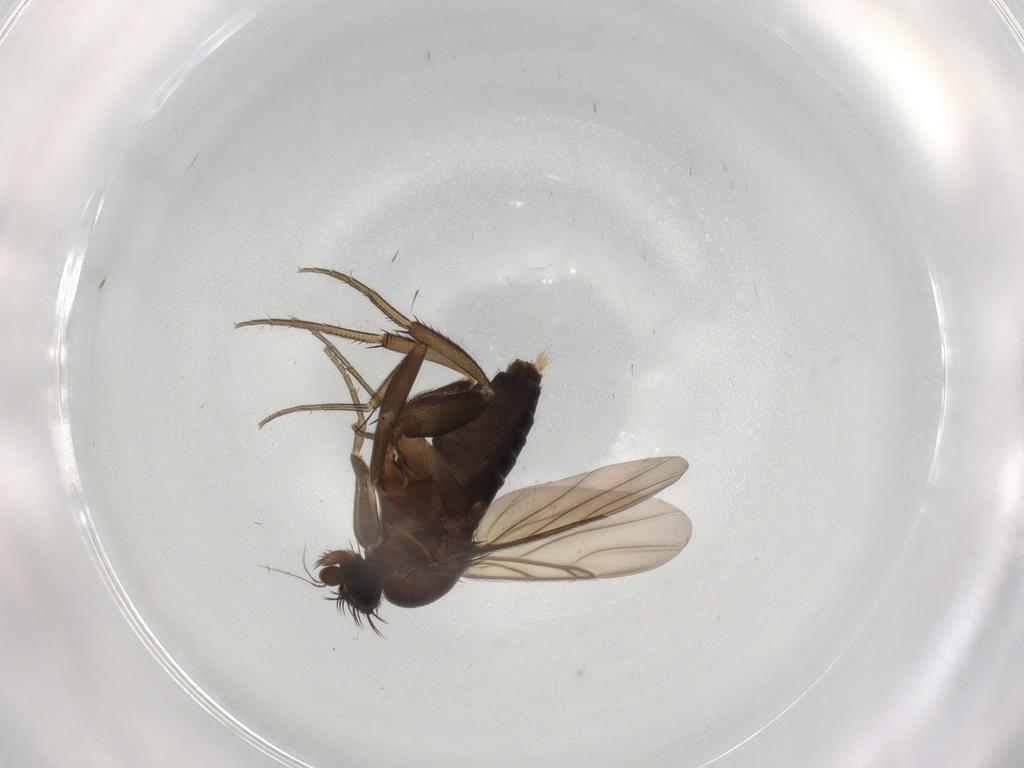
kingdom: Animalia
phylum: Arthropoda
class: Insecta
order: Diptera
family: Phoridae
